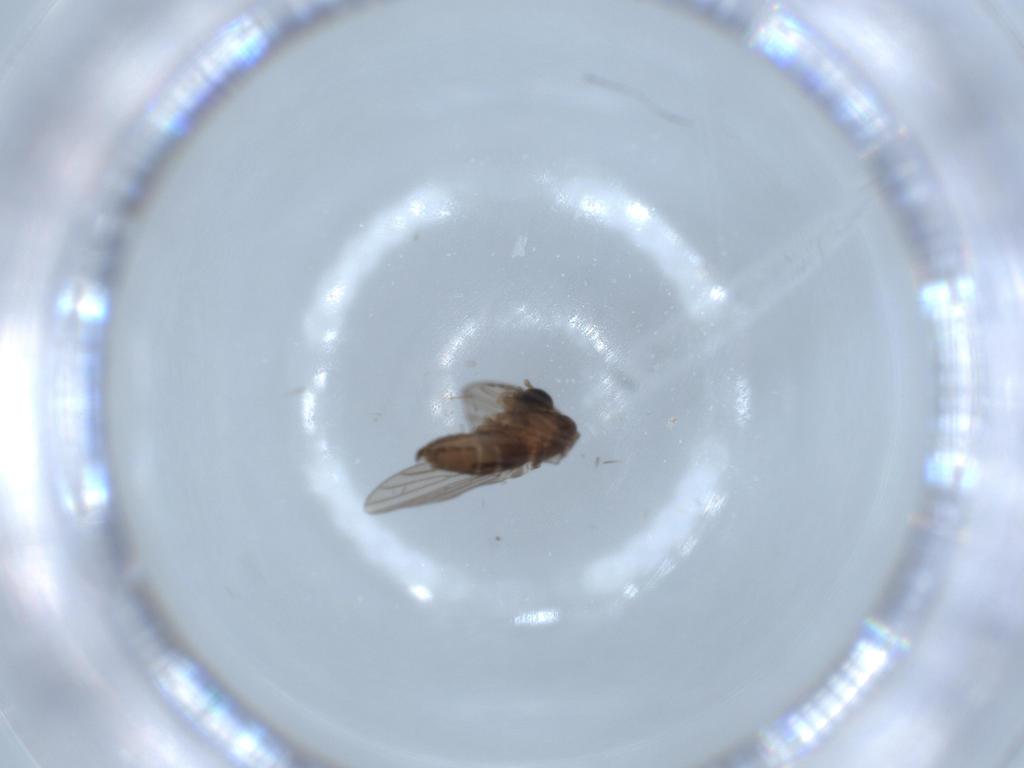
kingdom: Animalia
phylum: Arthropoda
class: Insecta
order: Diptera
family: Psychodidae
